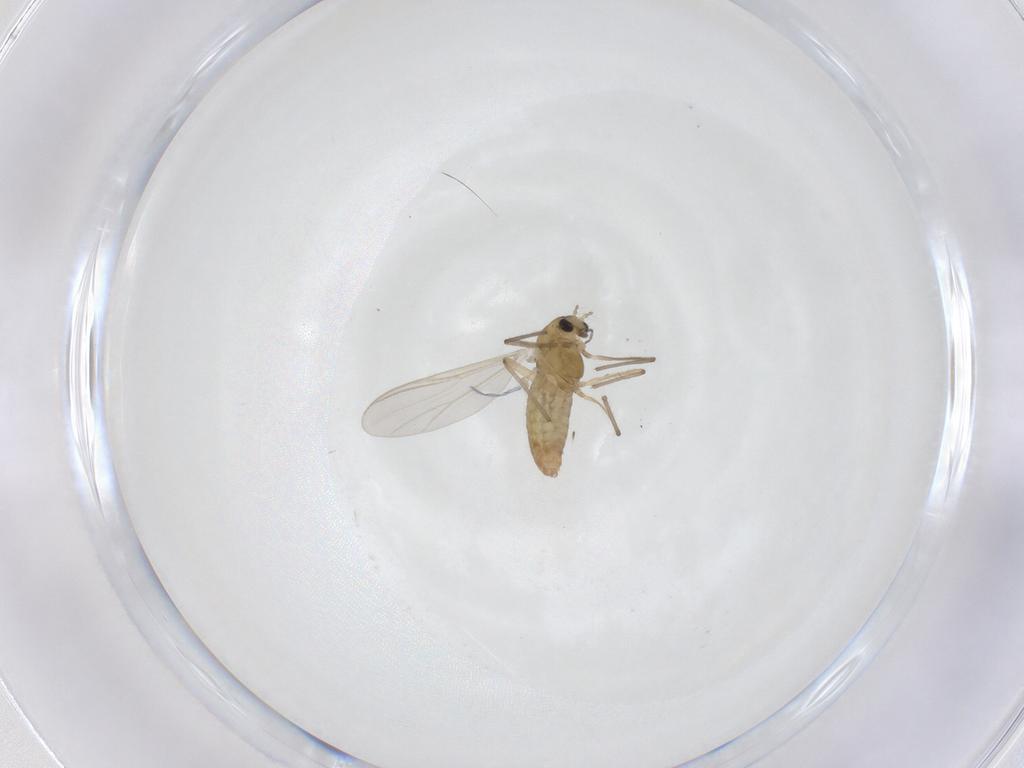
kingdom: Animalia
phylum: Arthropoda
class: Insecta
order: Diptera
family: Chironomidae
